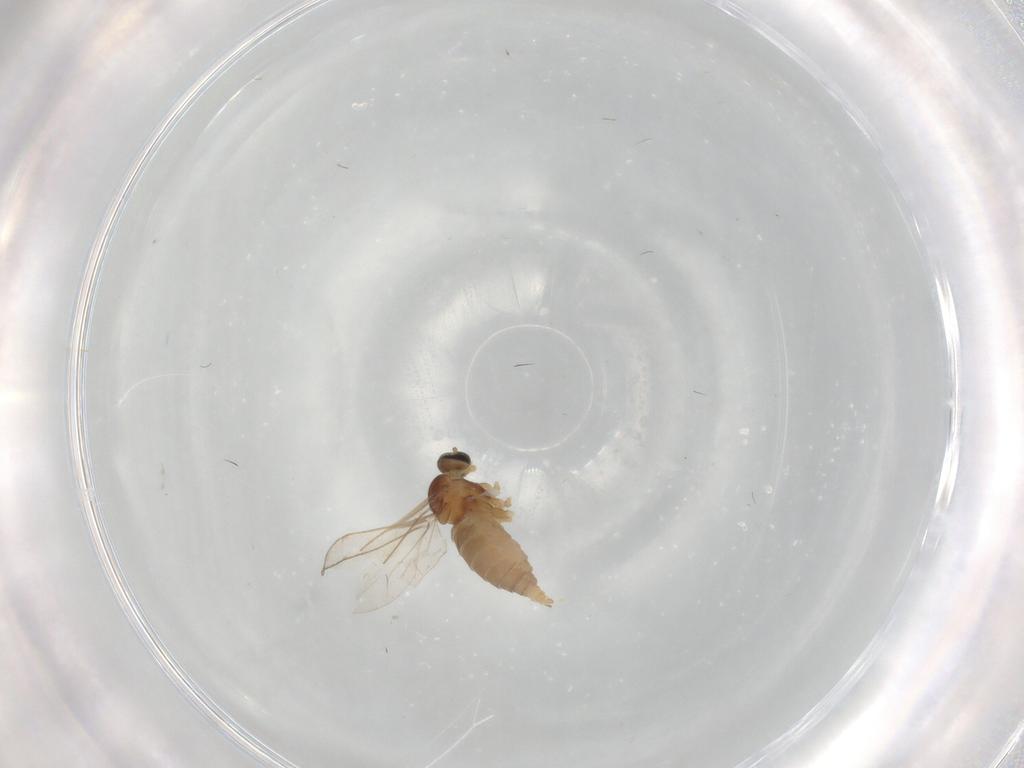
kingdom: Animalia
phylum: Arthropoda
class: Insecta
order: Diptera
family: Cecidomyiidae
